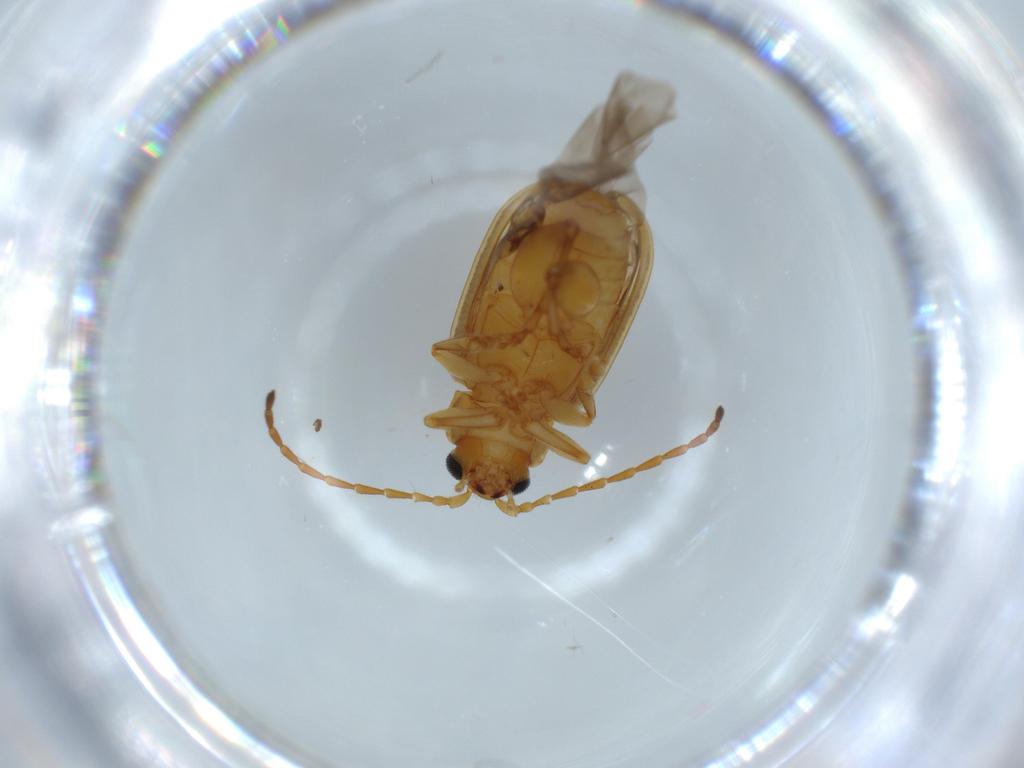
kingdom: Animalia
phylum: Arthropoda
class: Insecta
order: Coleoptera
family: Chrysomelidae
